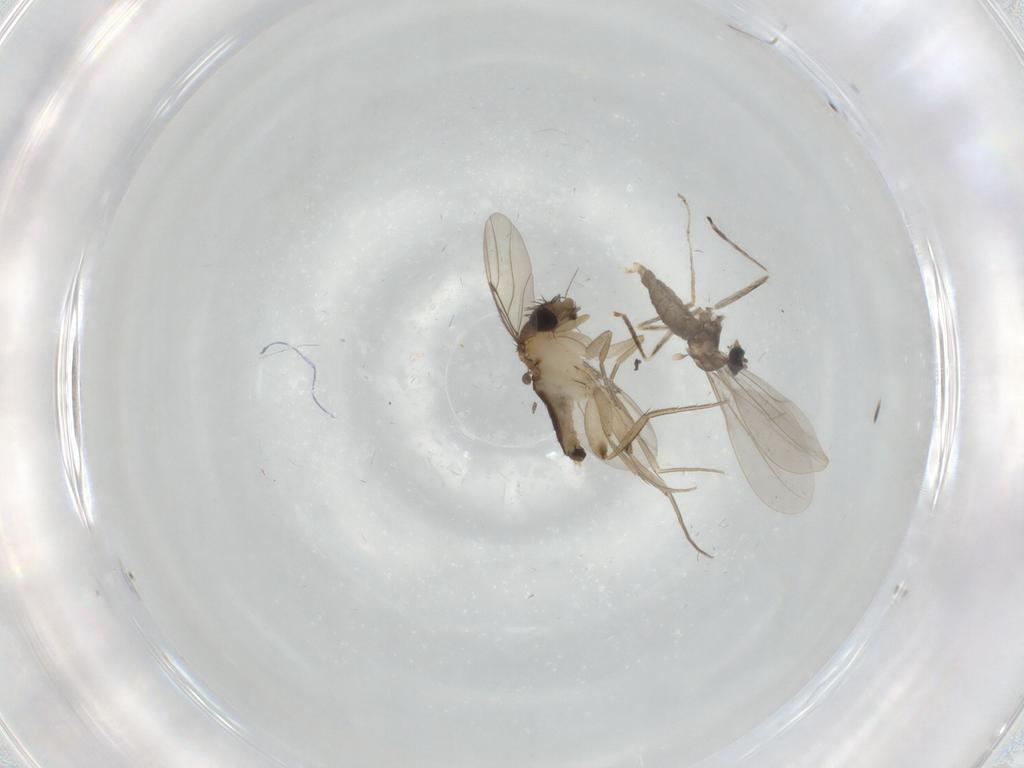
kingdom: Animalia
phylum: Arthropoda
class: Insecta
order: Diptera
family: Cecidomyiidae
